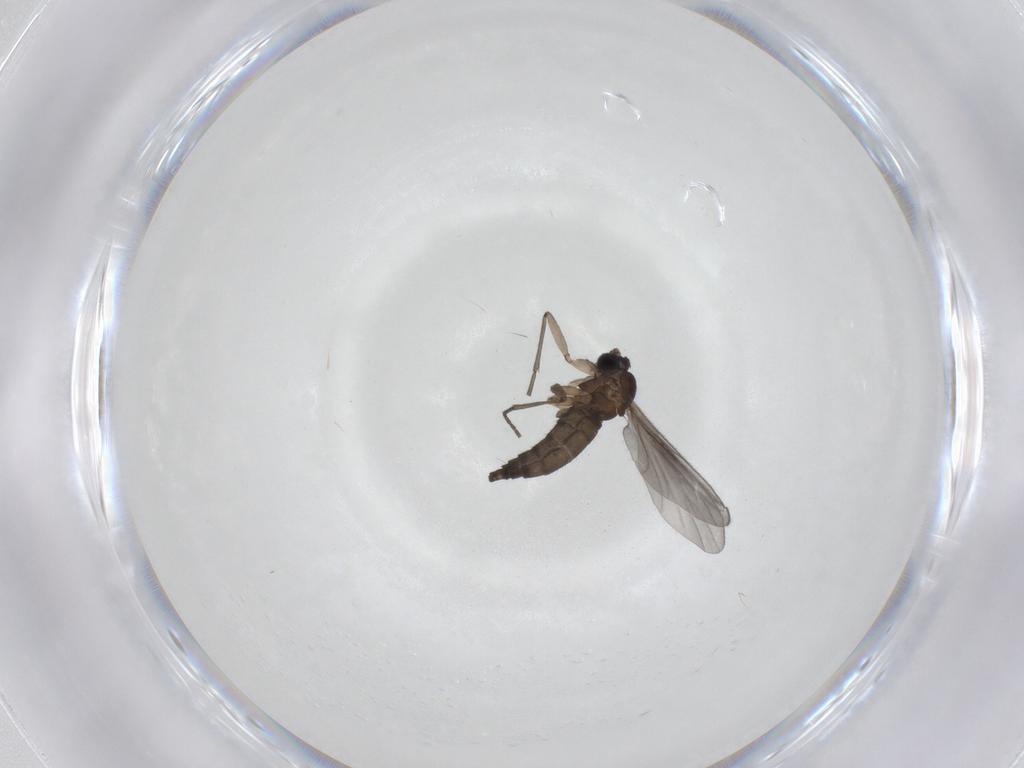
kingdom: Animalia
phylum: Arthropoda
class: Insecta
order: Diptera
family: Sciaridae
